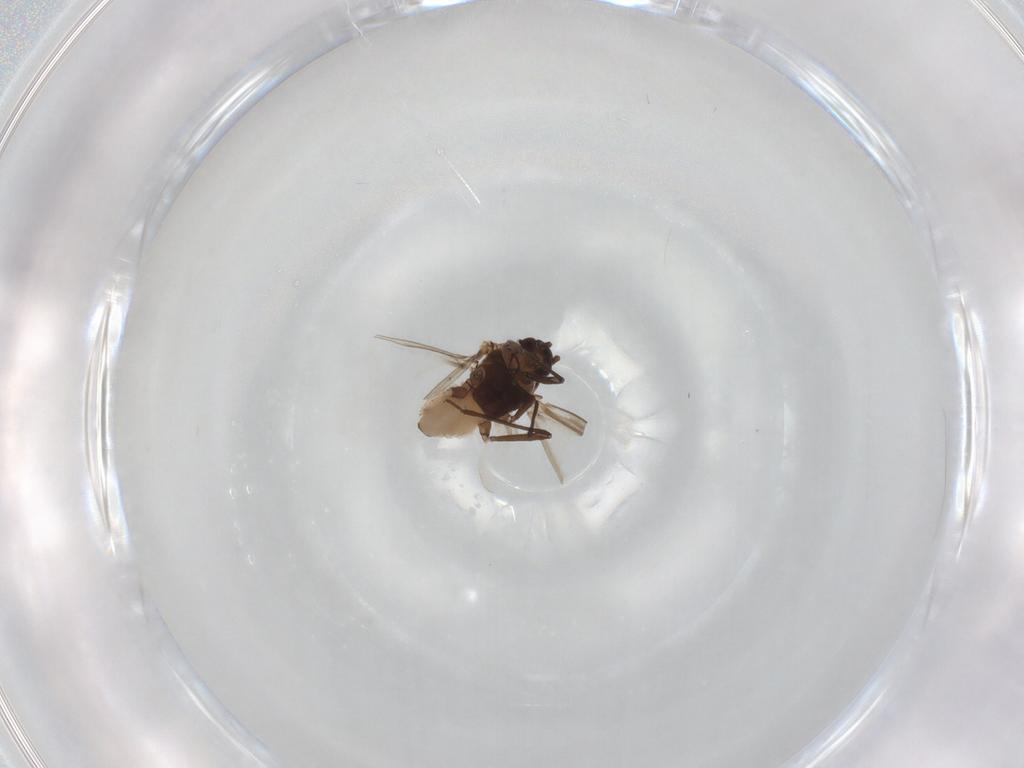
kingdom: Animalia
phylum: Arthropoda
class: Insecta
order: Hemiptera
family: Aphididae
